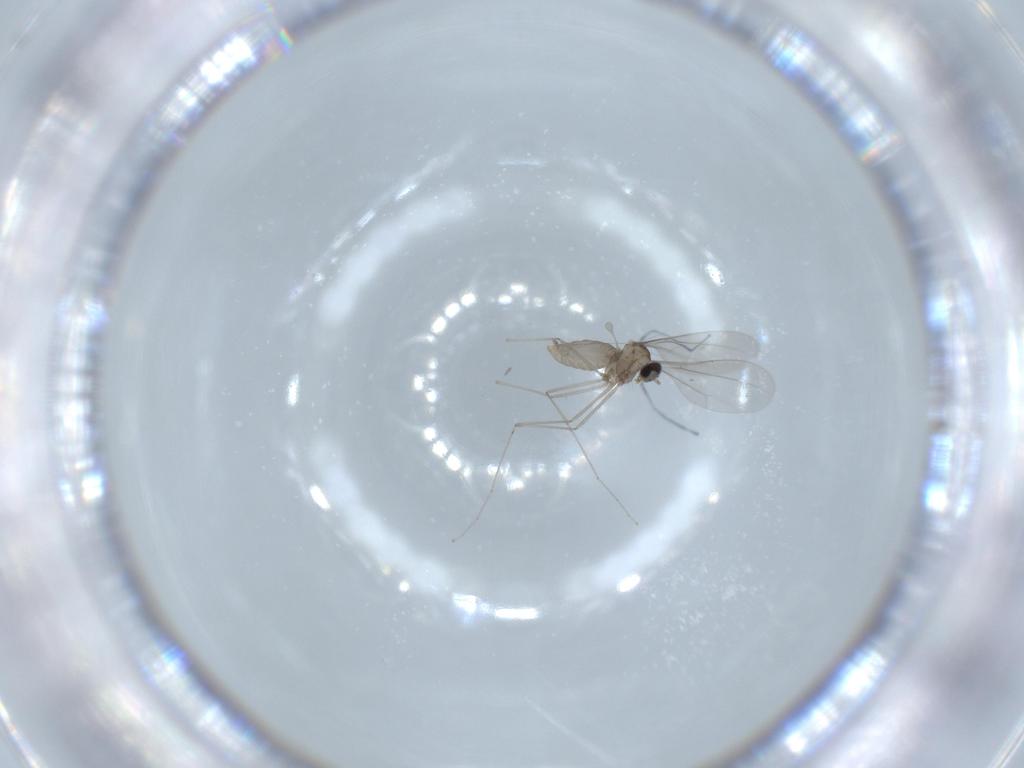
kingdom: Animalia
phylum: Arthropoda
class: Insecta
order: Diptera
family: Cecidomyiidae
